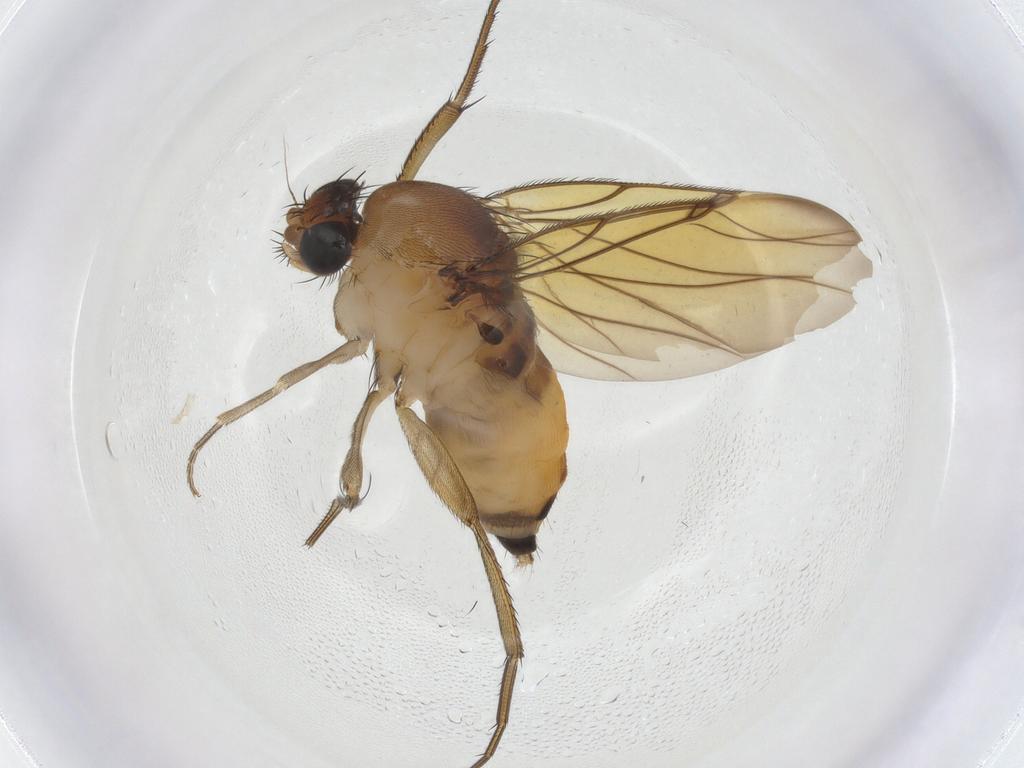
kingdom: Animalia
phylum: Arthropoda
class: Insecta
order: Diptera
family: Phoridae
